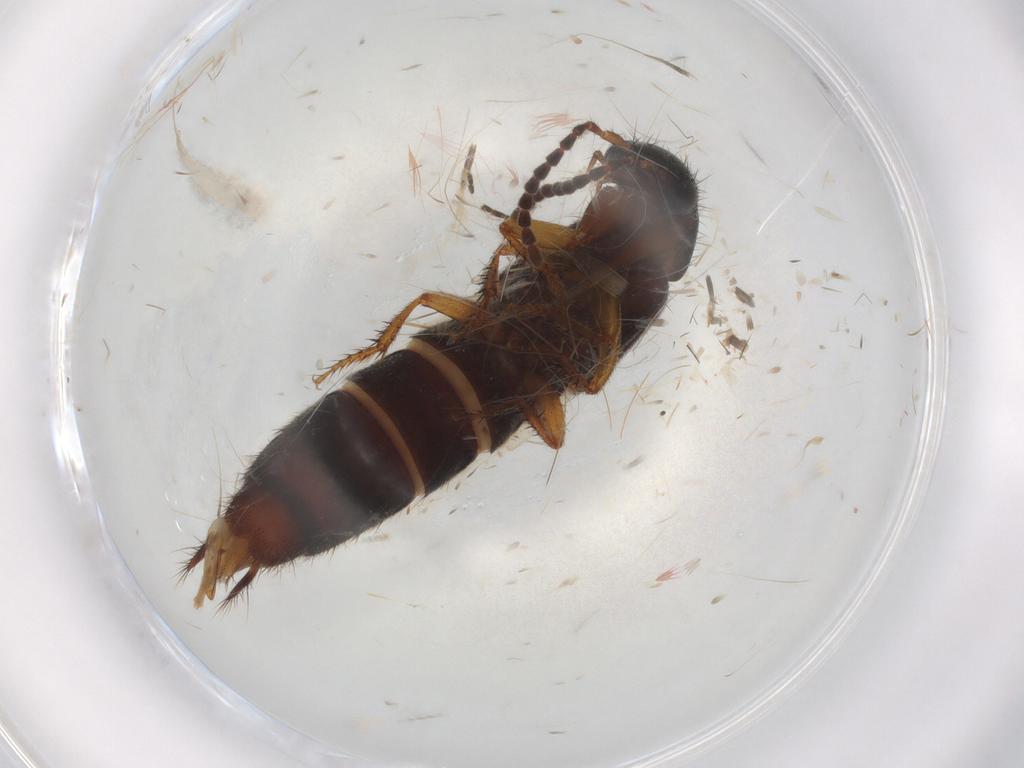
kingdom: Animalia
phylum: Arthropoda
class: Insecta
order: Coleoptera
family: Staphylinidae
